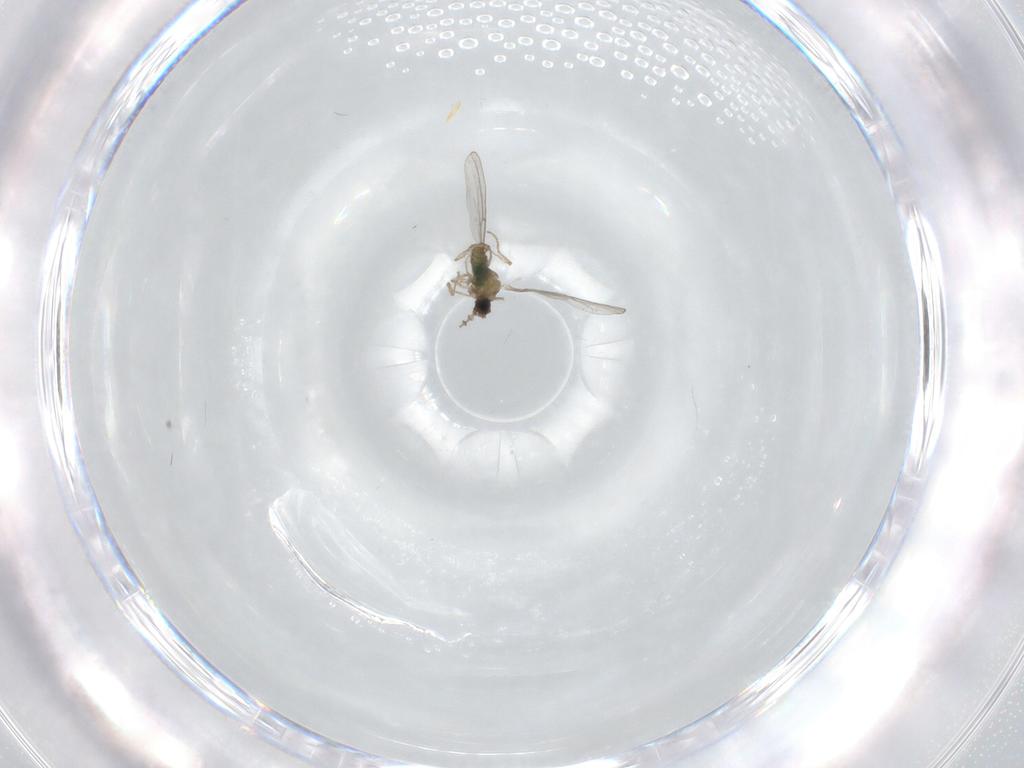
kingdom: Animalia
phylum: Arthropoda
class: Insecta
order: Diptera
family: Cecidomyiidae
